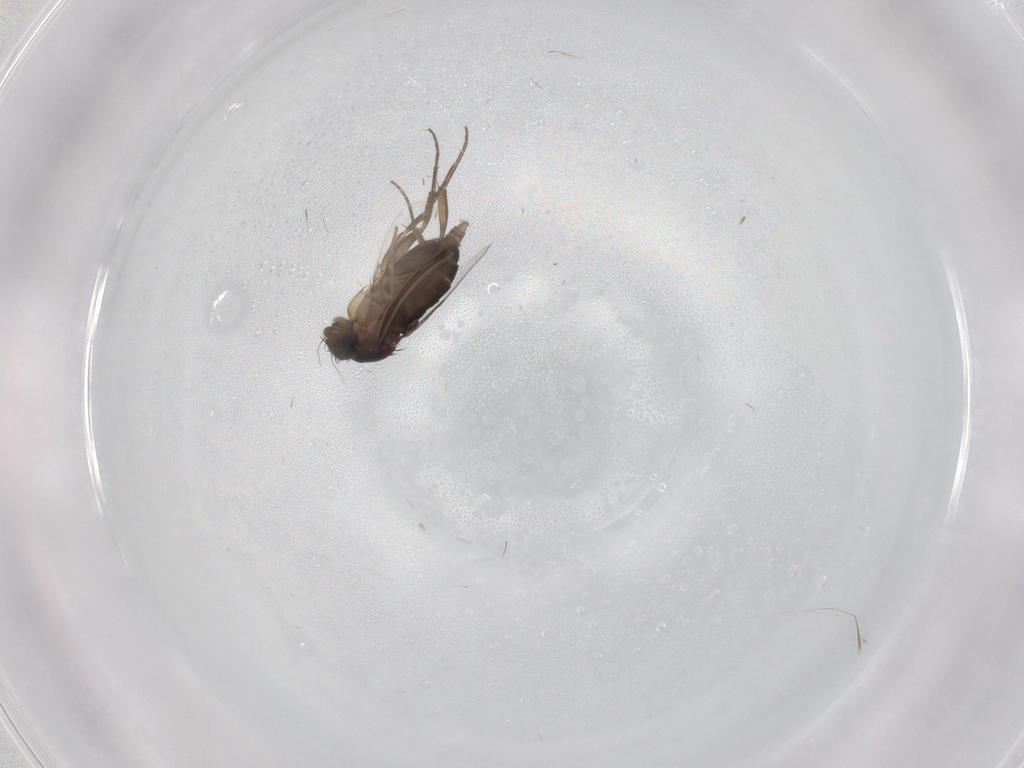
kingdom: Animalia
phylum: Arthropoda
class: Insecta
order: Diptera
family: Phoridae
